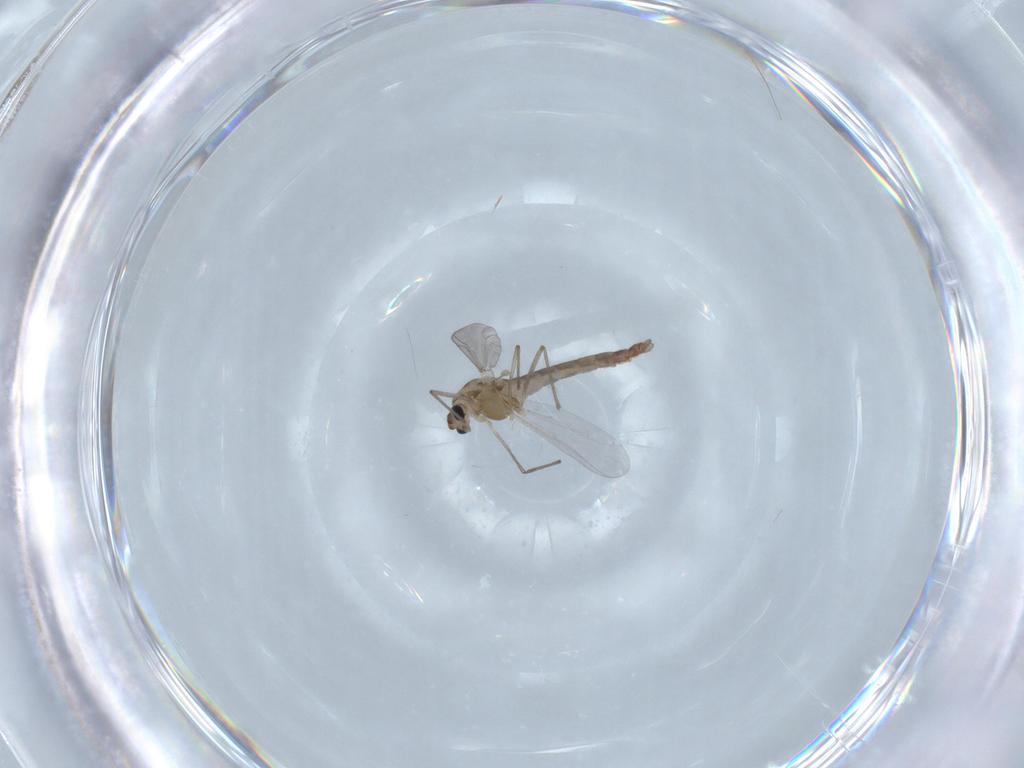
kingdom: Animalia
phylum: Arthropoda
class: Insecta
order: Diptera
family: Chironomidae
